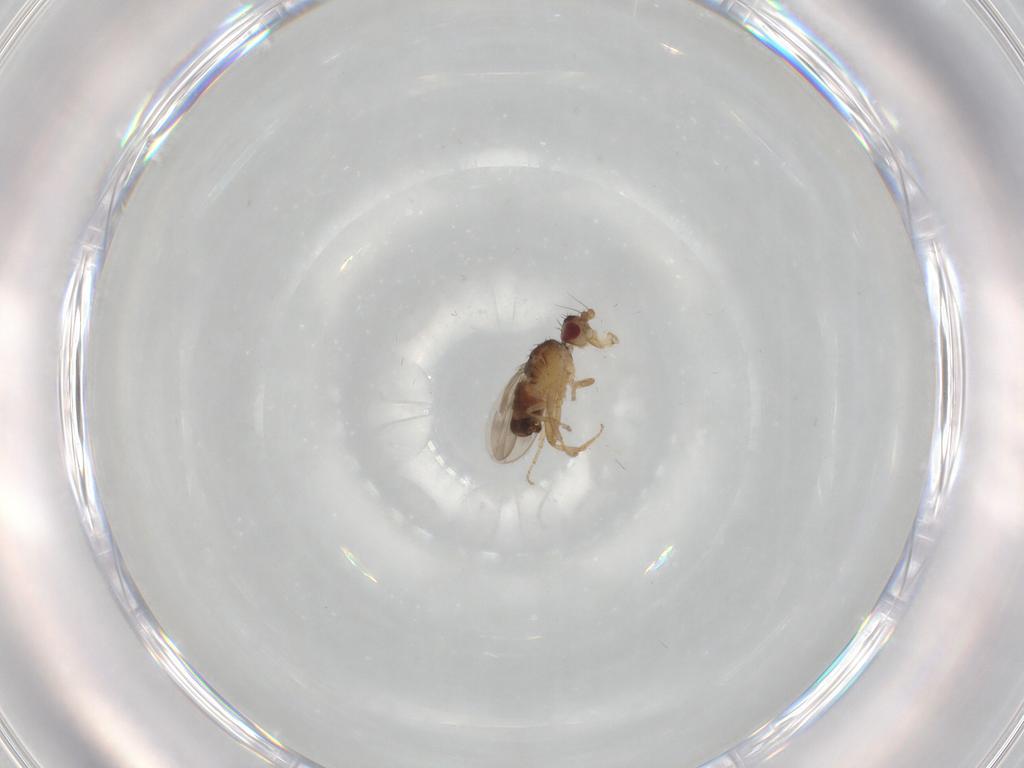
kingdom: Animalia
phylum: Arthropoda
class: Insecta
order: Diptera
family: Sphaeroceridae
